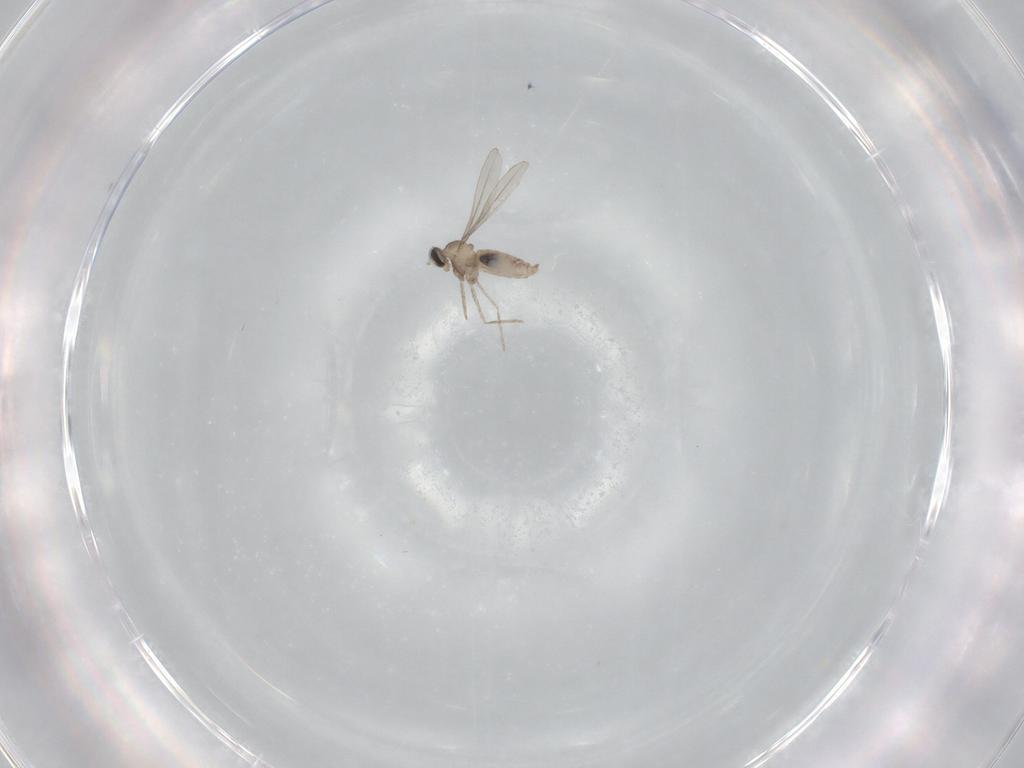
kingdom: Animalia
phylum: Arthropoda
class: Insecta
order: Diptera
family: Cecidomyiidae
